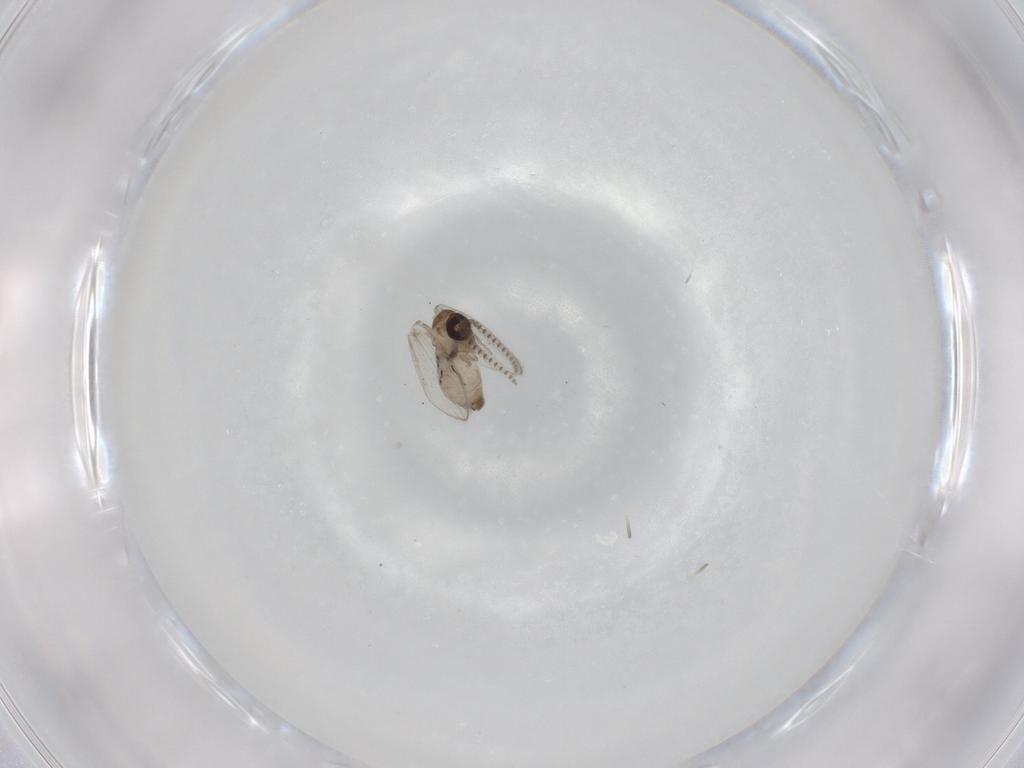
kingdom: Animalia
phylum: Arthropoda
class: Insecta
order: Diptera
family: Psychodidae
